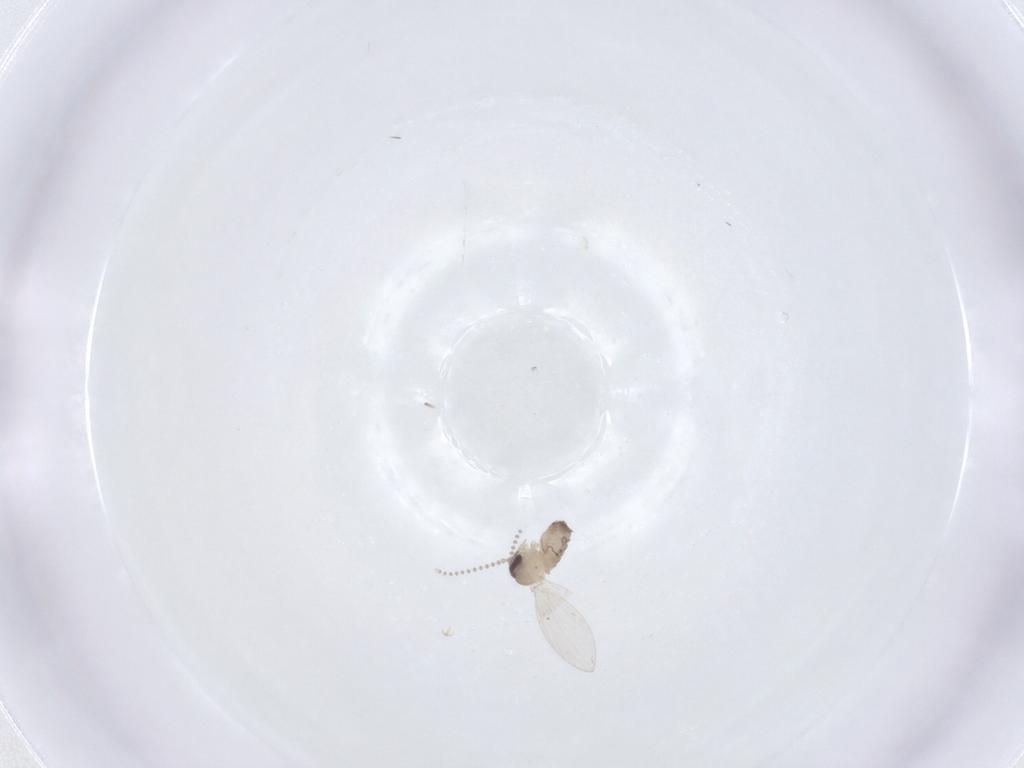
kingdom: Animalia
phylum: Arthropoda
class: Insecta
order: Diptera
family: Psychodidae
